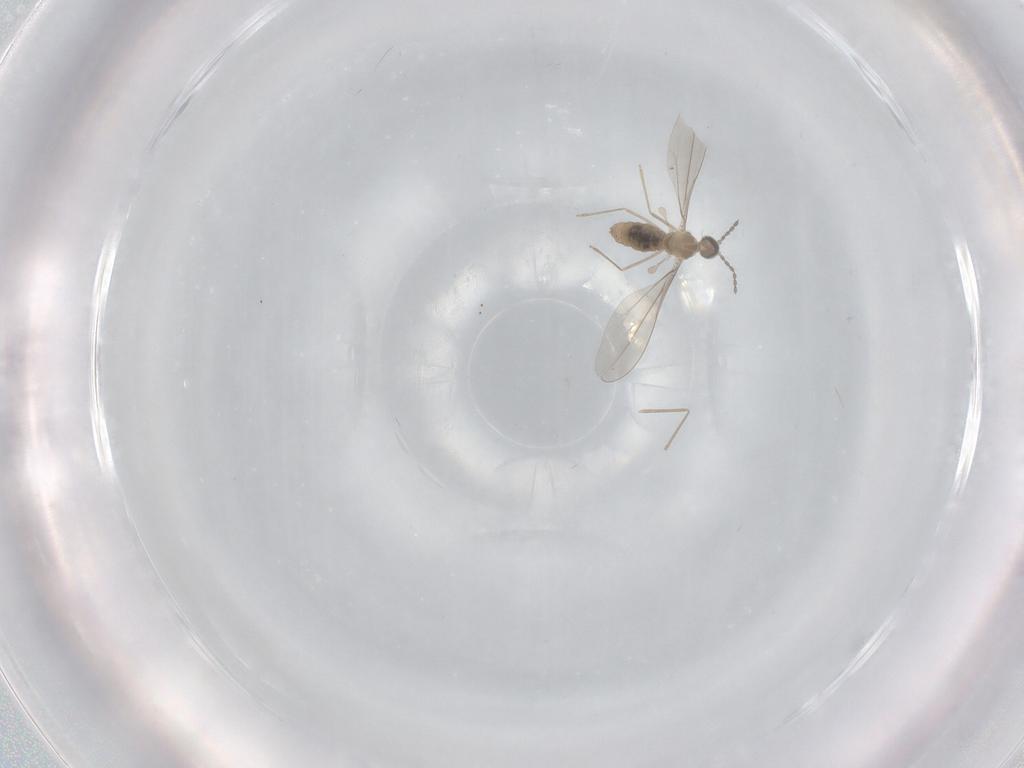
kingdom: Animalia
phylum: Arthropoda
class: Insecta
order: Diptera
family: Cecidomyiidae
